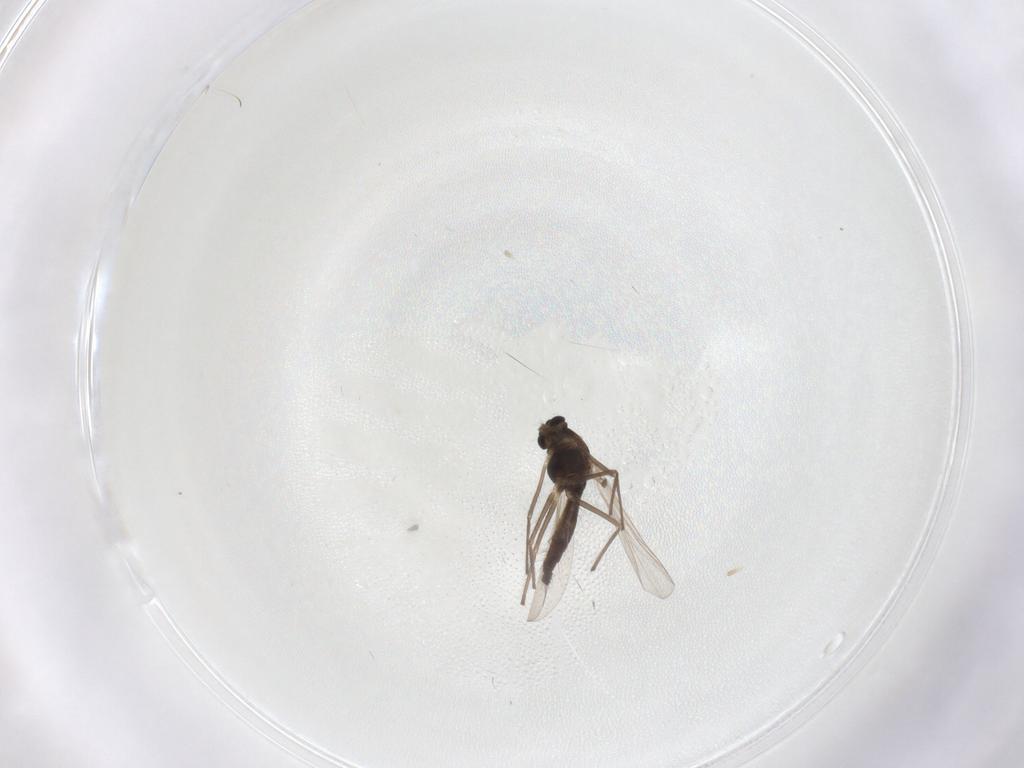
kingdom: Animalia
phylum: Arthropoda
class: Insecta
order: Diptera
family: Chironomidae
